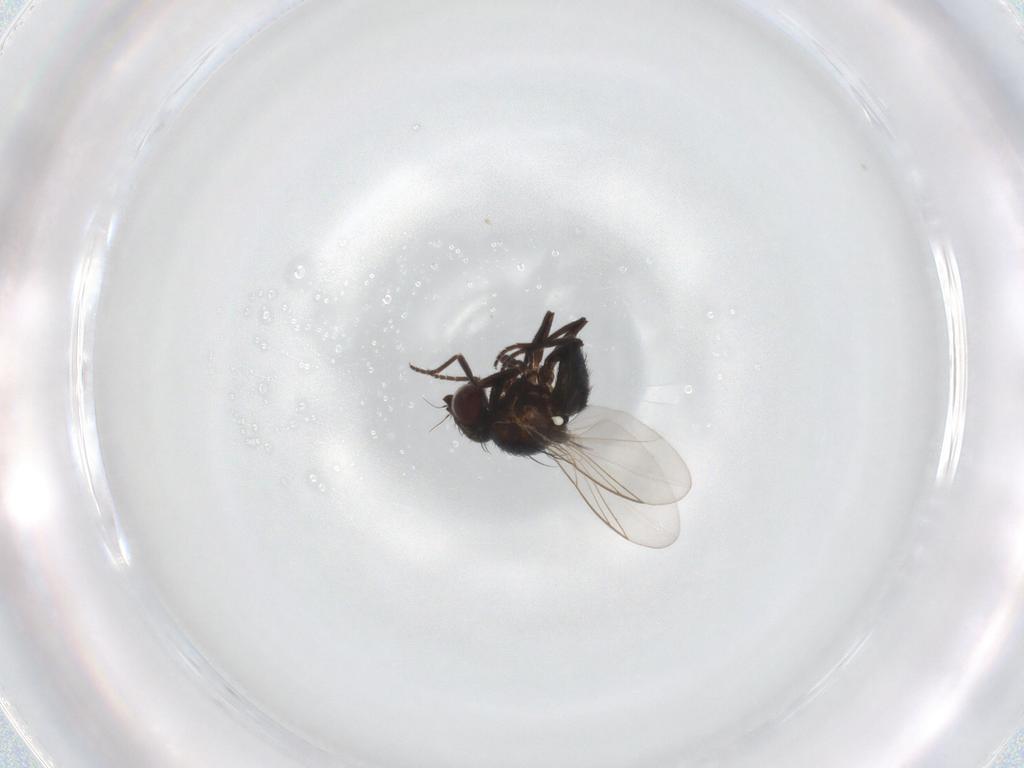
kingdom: Animalia
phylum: Arthropoda
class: Insecta
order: Diptera
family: Agromyzidae
